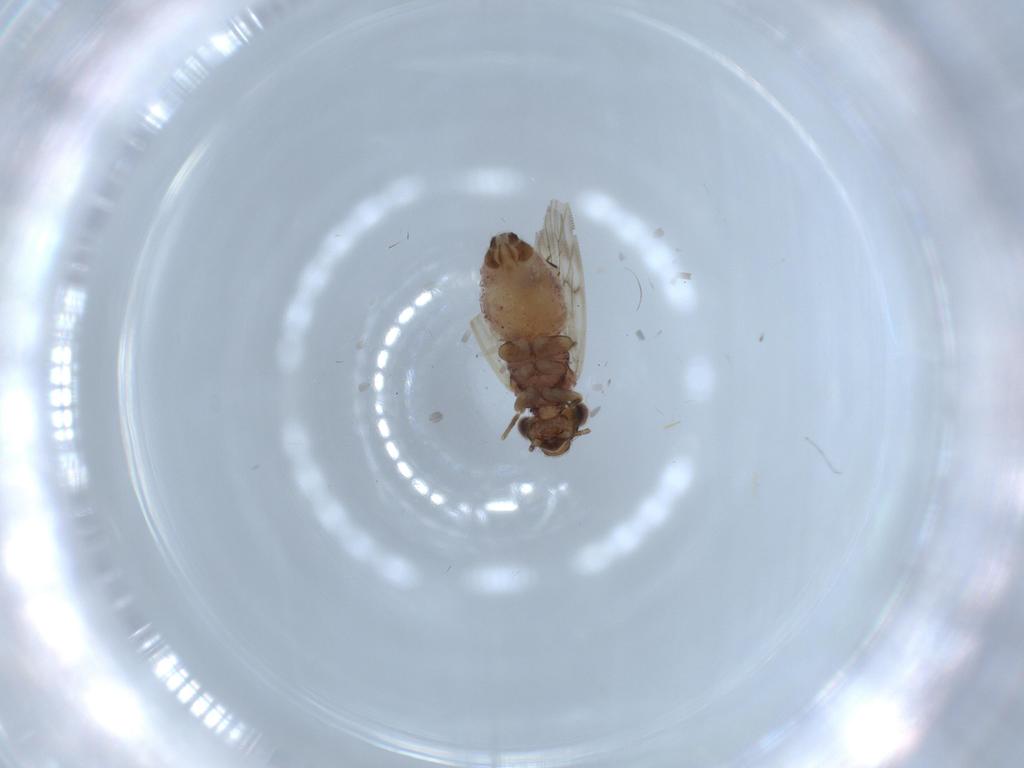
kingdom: Animalia
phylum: Arthropoda
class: Insecta
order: Psocodea
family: Lepidopsocidae
